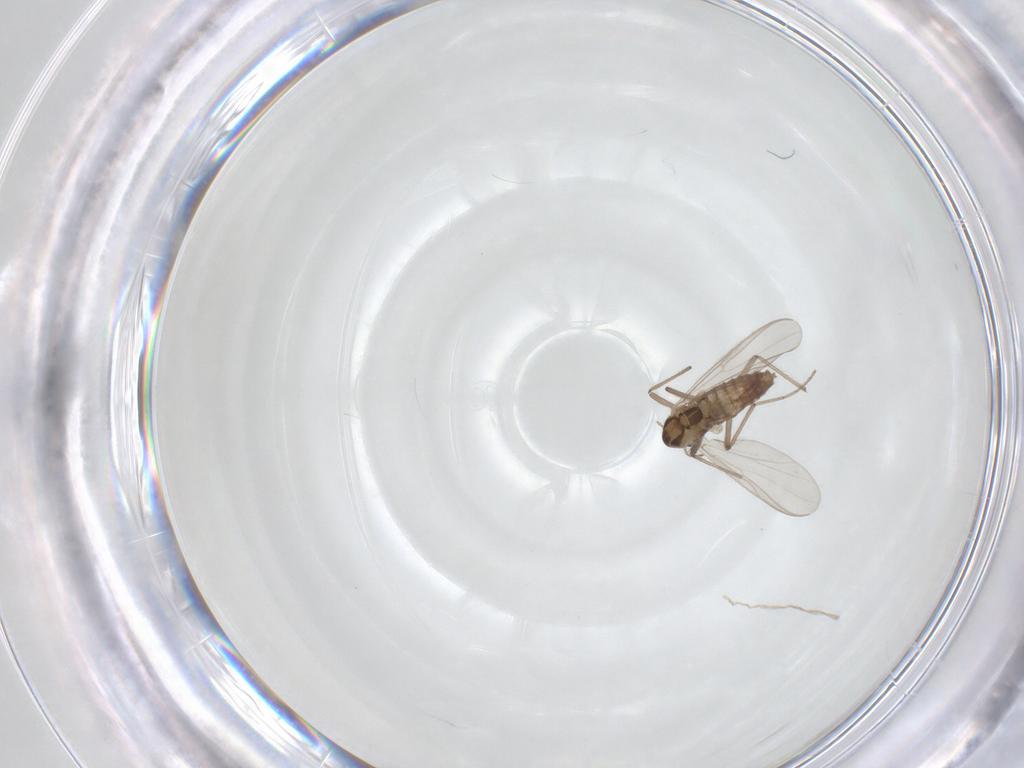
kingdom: Animalia
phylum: Arthropoda
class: Insecta
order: Diptera
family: Chironomidae
